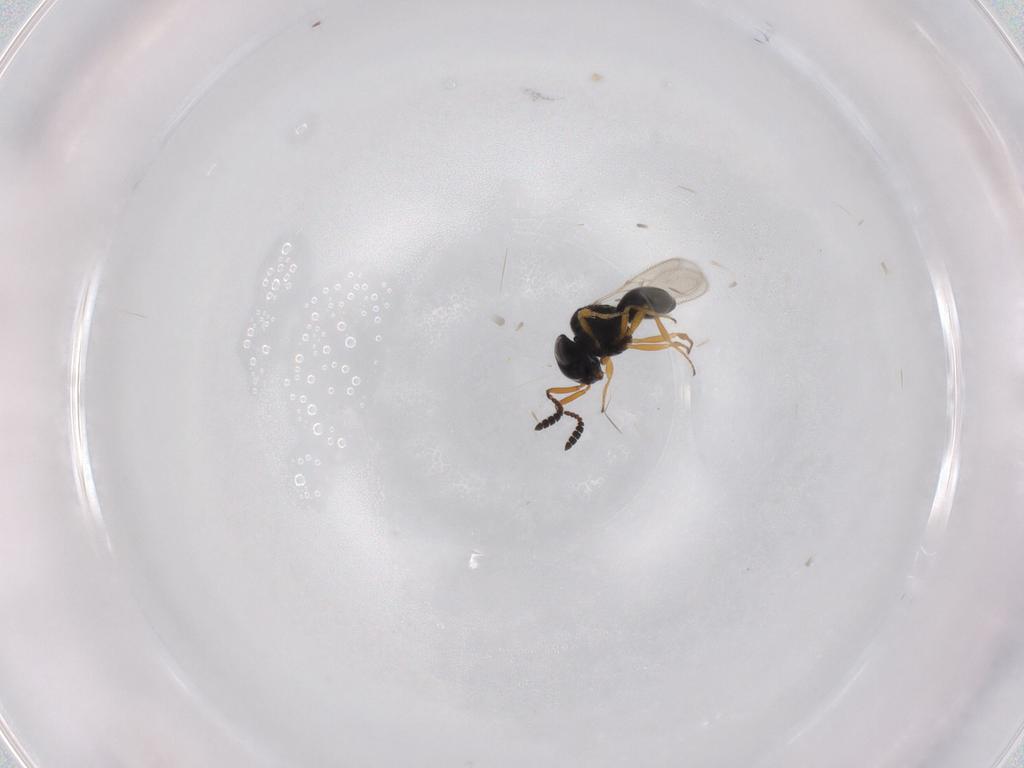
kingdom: Animalia
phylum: Arthropoda
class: Insecta
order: Hymenoptera
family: Scelionidae
